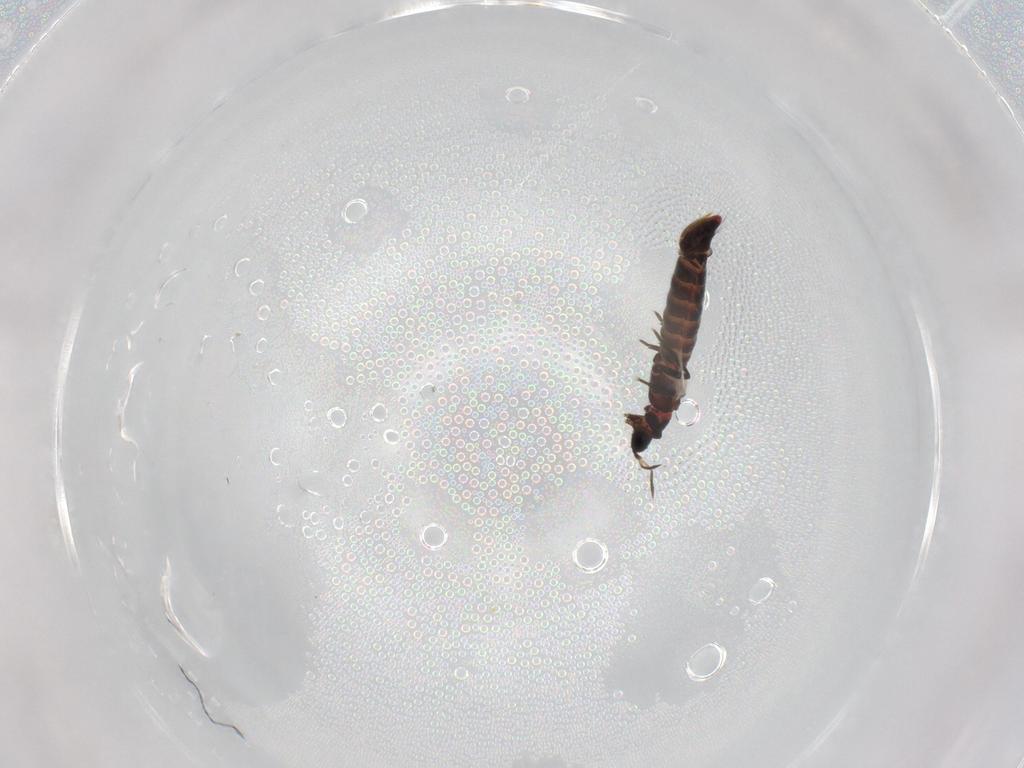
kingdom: Animalia
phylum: Arthropoda
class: Insecta
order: Thysanoptera
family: Aeolothripidae
